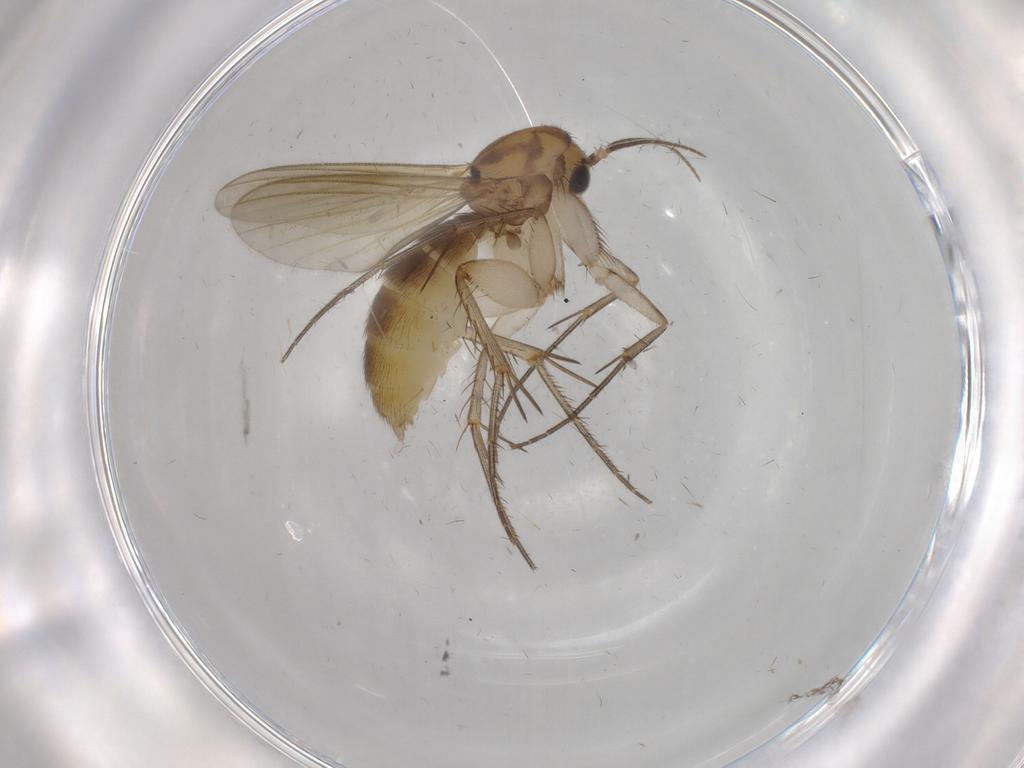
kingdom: Animalia
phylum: Arthropoda
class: Insecta
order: Diptera
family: Mycetophilidae
